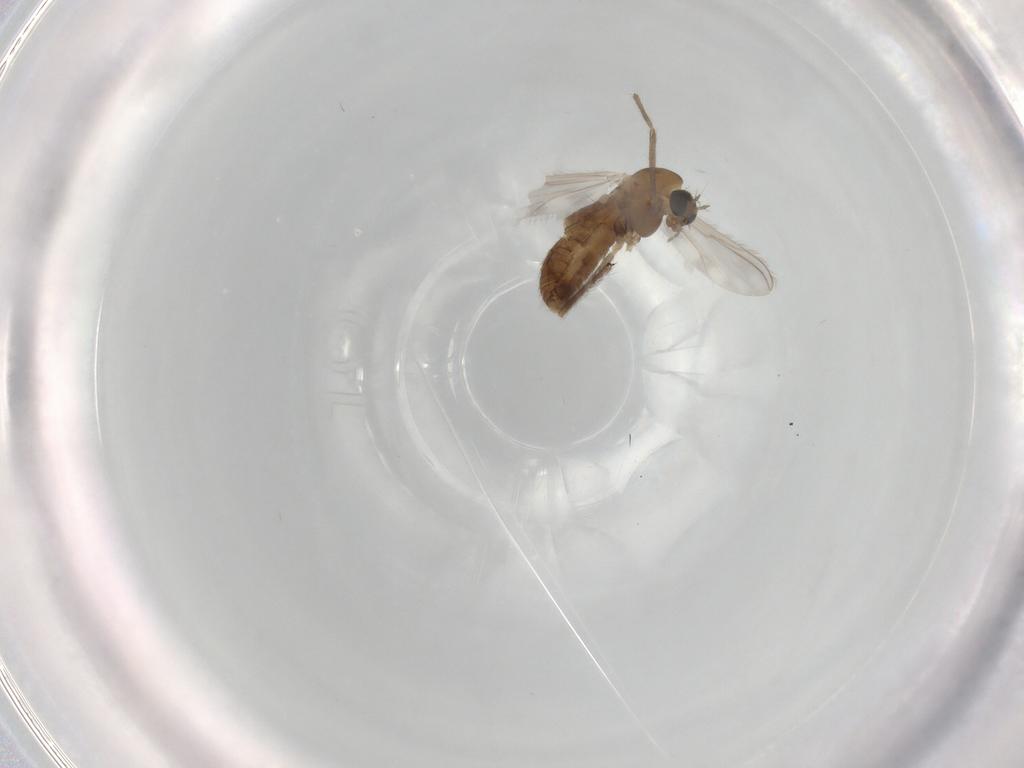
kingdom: Animalia
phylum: Arthropoda
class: Insecta
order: Diptera
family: Chironomidae
